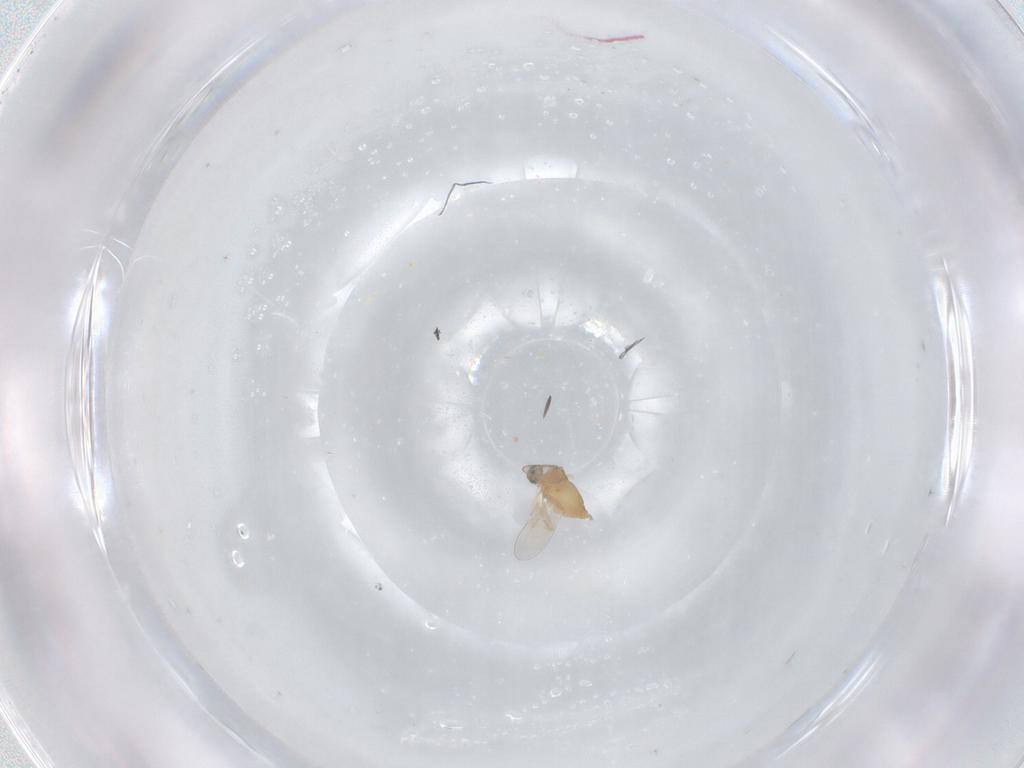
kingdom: Animalia
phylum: Arthropoda
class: Insecta
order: Diptera
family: Cecidomyiidae
